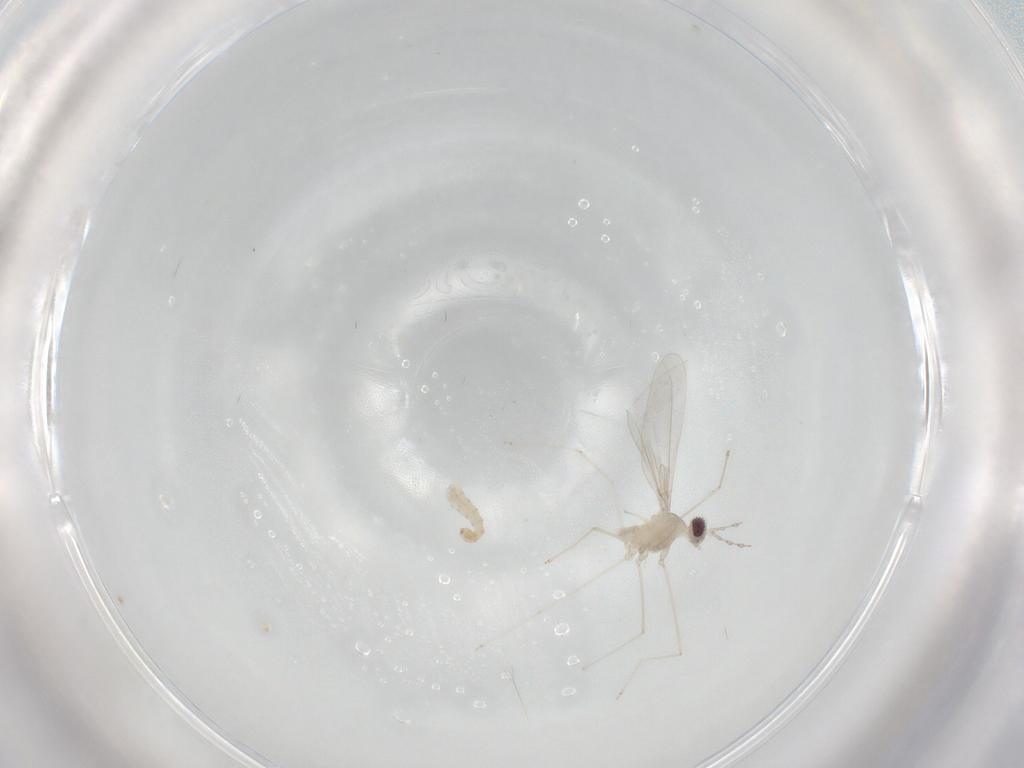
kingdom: Animalia
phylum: Arthropoda
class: Insecta
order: Diptera
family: Cecidomyiidae
